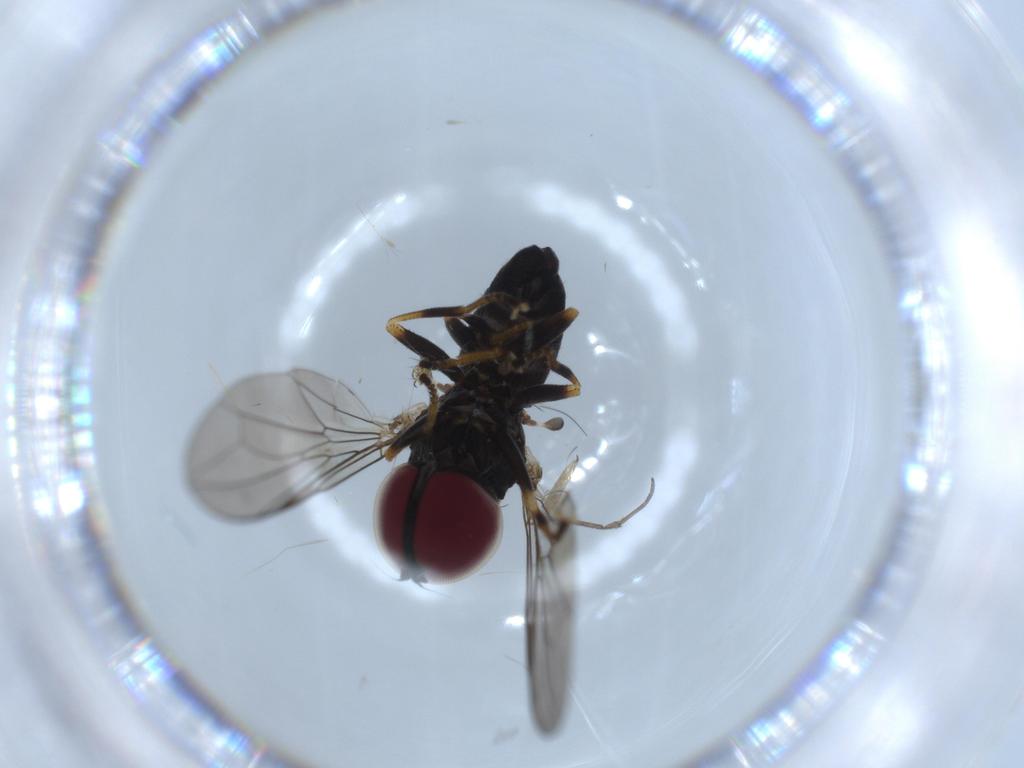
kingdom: Animalia
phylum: Arthropoda
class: Insecta
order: Diptera
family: Pipunculidae
